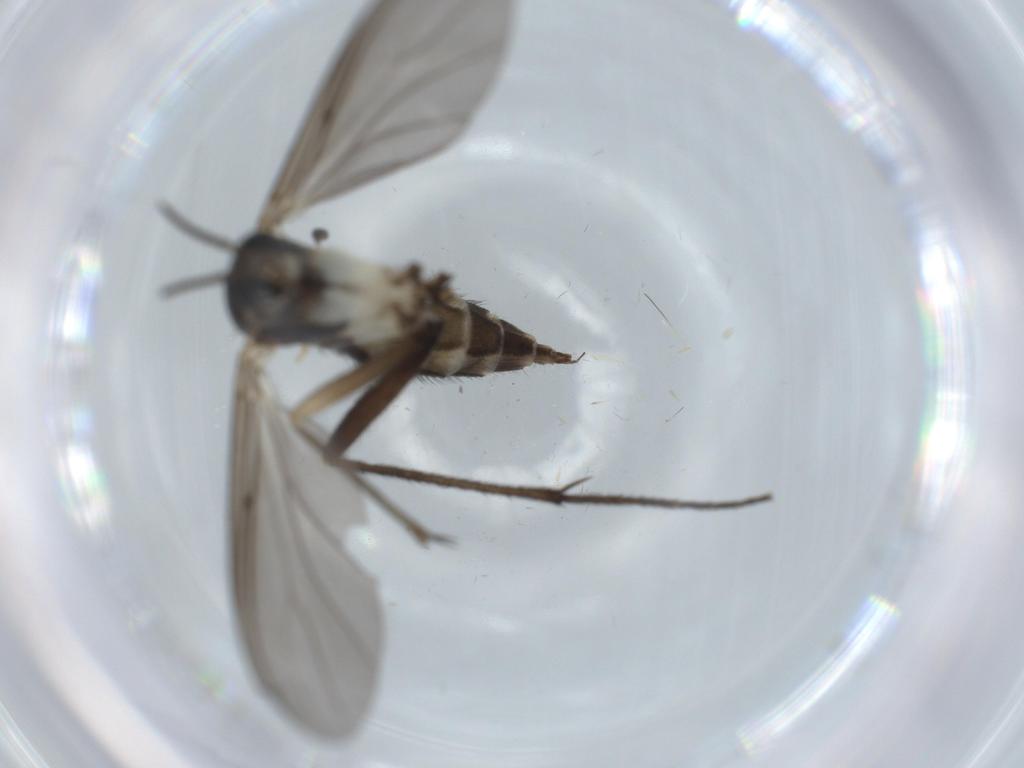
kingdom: Animalia
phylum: Arthropoda
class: Insecta
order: Diptera
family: Sciaridae
